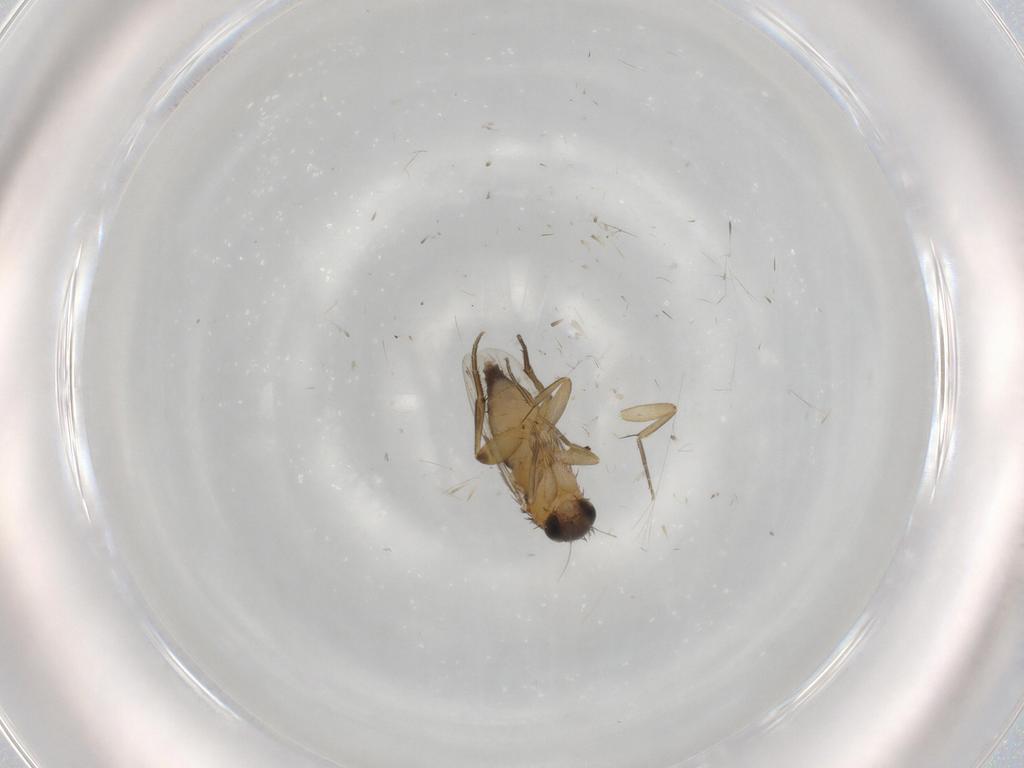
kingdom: Animalia
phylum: Arthropoda
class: Insecta
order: Diptera
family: Phoridae
